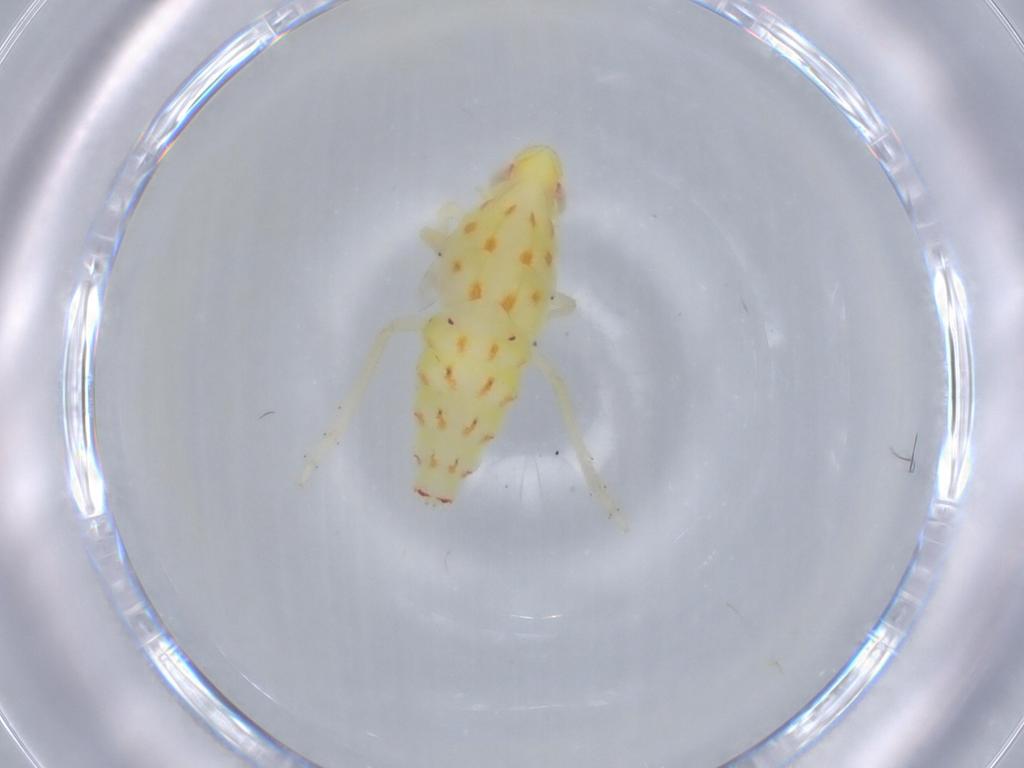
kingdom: Animalia
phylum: Arthropoda
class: Insecta
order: Hemiptera
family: Tropiduchidae
